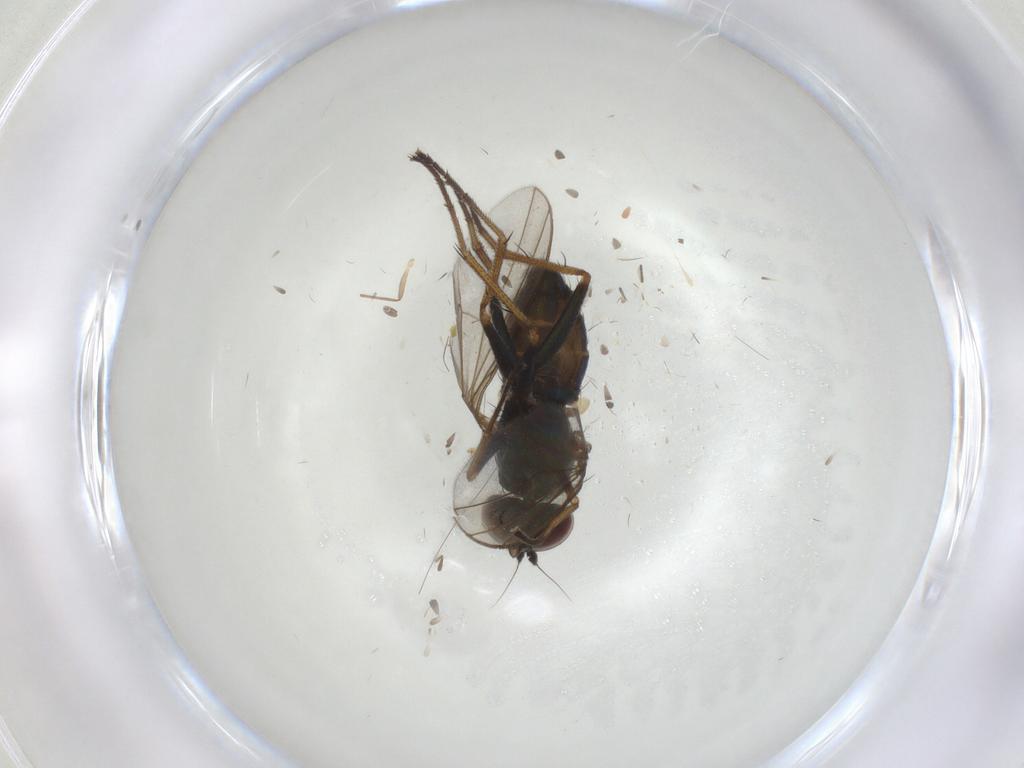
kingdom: Animalia
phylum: Arthropoda
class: Insecta
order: Diptera
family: Dolichopodidae
